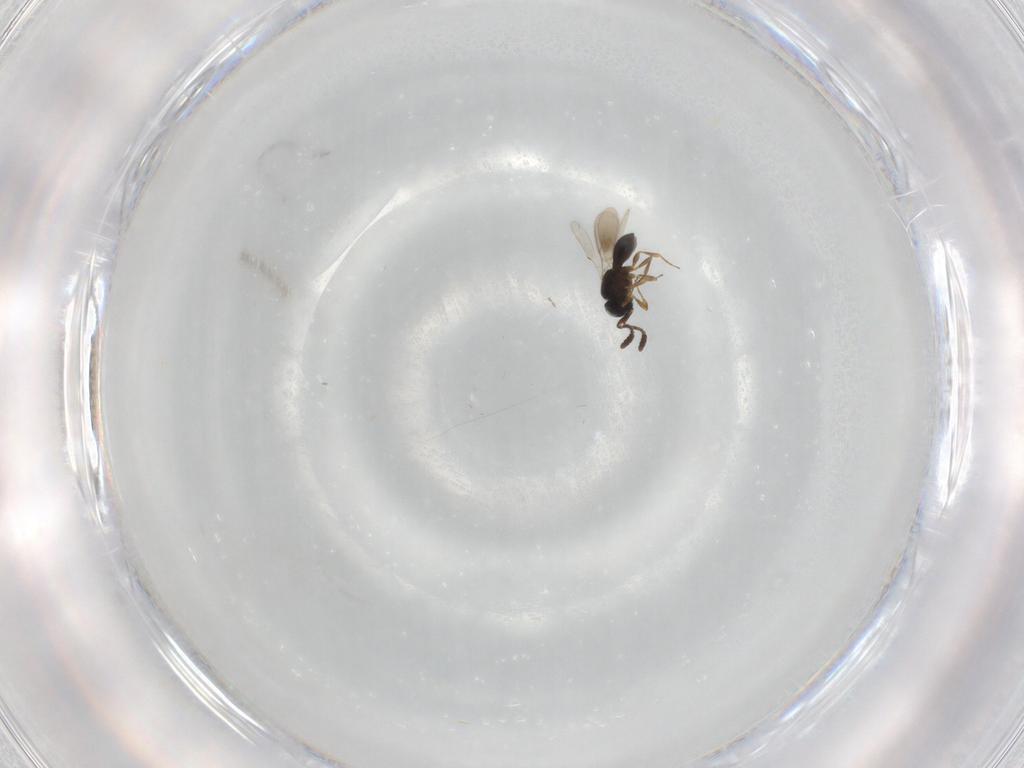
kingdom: Animalia
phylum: Arthropoda
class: Insecta
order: Hymenoptera
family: Scelionidae
